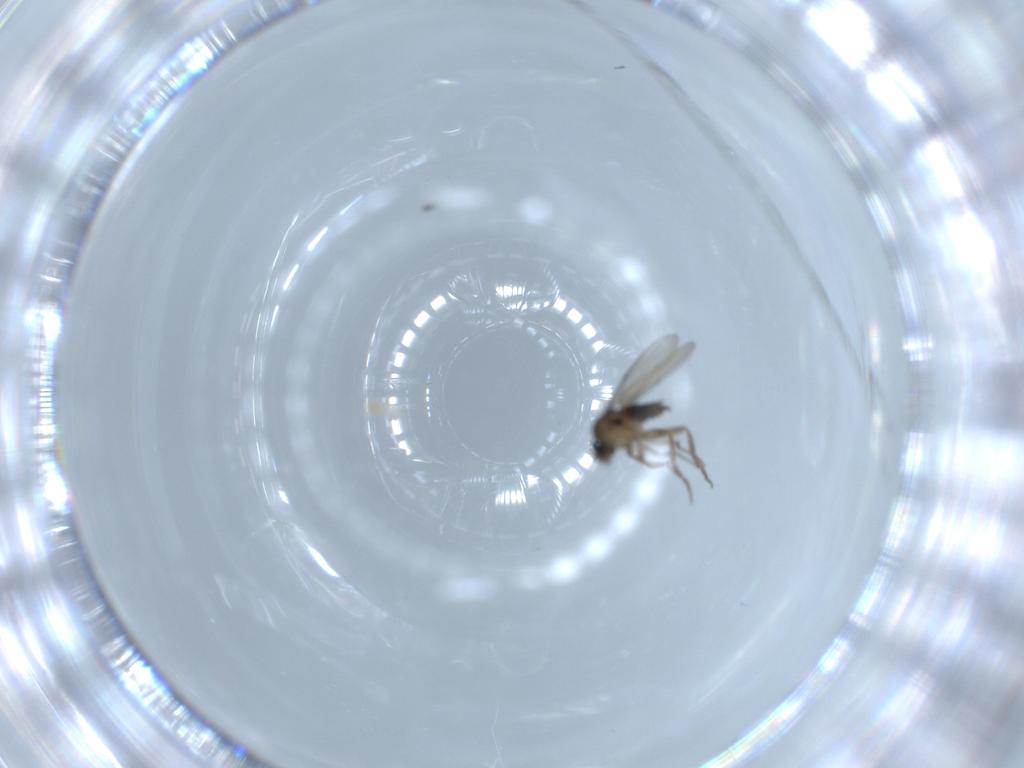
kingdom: Animalia
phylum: Arthropoda
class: Insecta
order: Diptera
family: Phoridae
